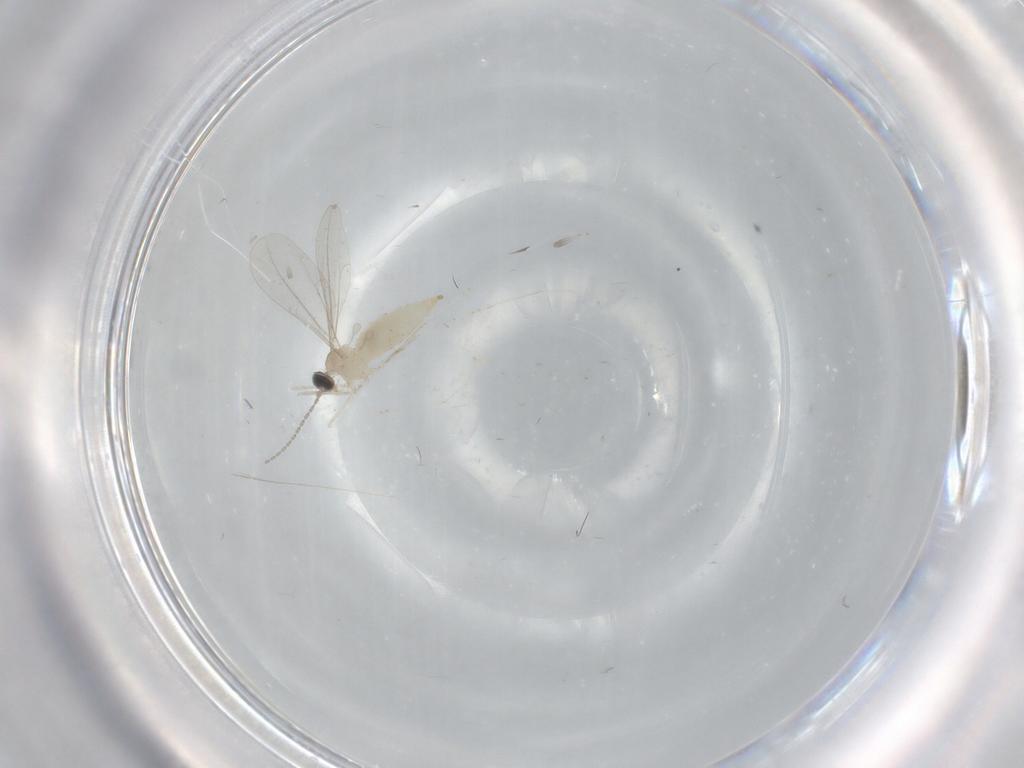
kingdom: Animalia
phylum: Arthropoda
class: Insecta
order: Diptera
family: Cecidomyiidae
